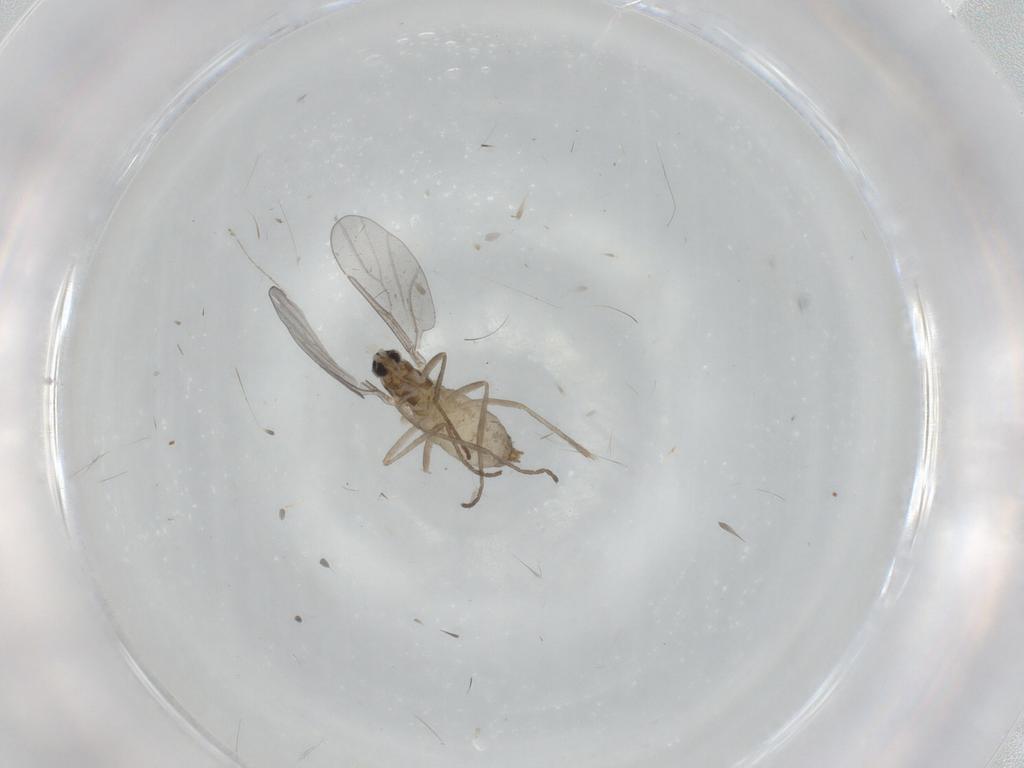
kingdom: Animalia
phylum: Arthropoda
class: Insecta
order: Diptera
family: Cecidomyiidae
